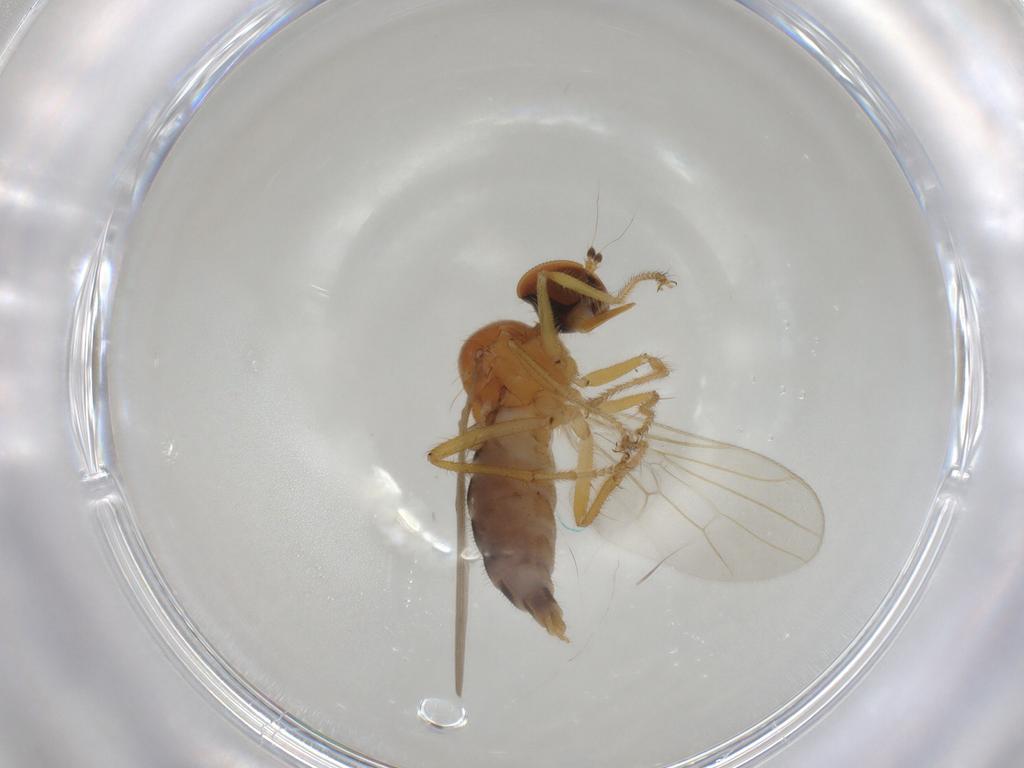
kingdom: Animalia
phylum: Arthropoda
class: Insecta
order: Diptera
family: Hybotidae
